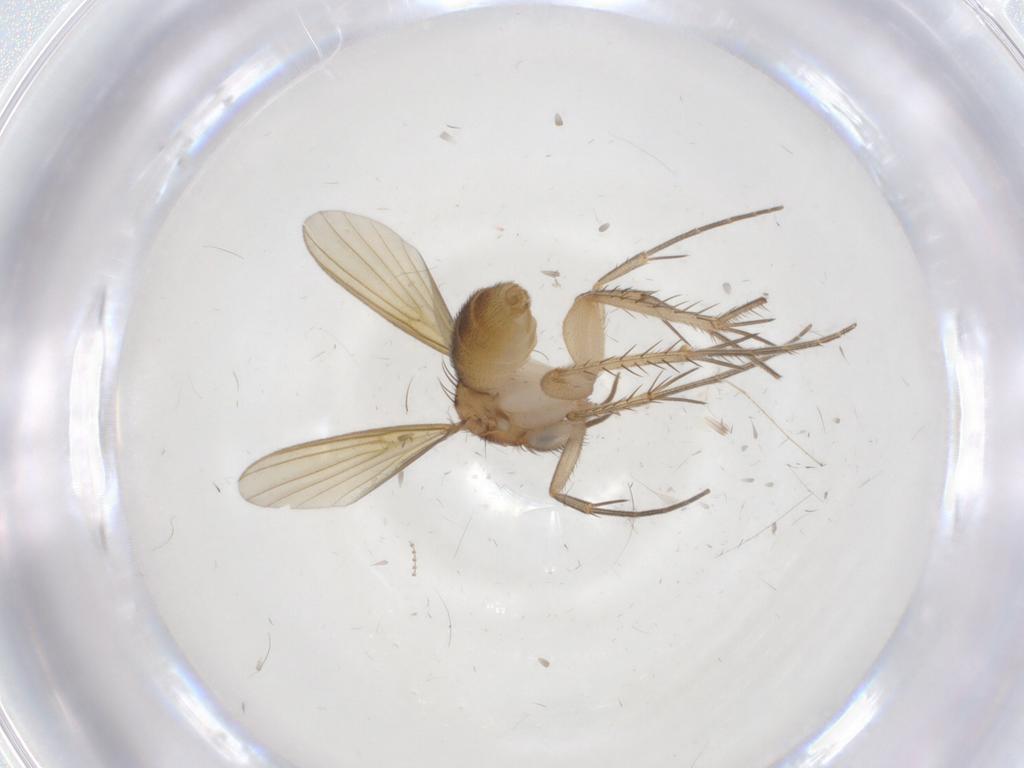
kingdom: Animalia
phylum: Arthropoda
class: Insecta
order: Diptera
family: Mycetophilidae
